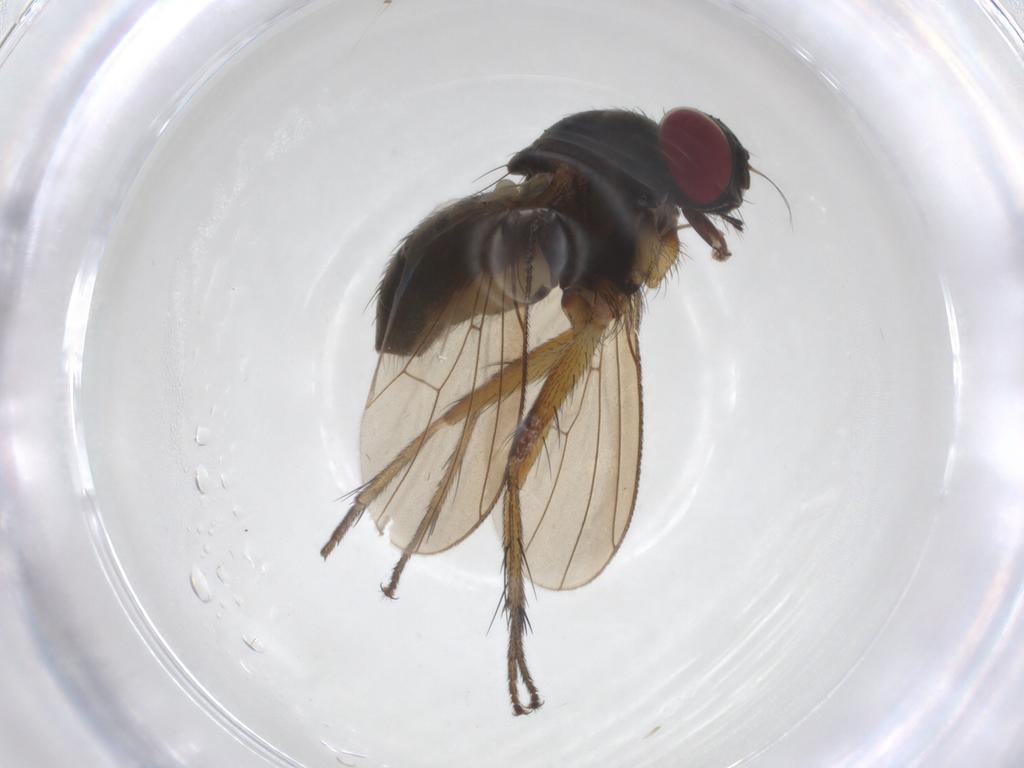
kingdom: Animalia
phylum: Arthropoda
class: Insecta
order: Diptera
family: Muscidae
